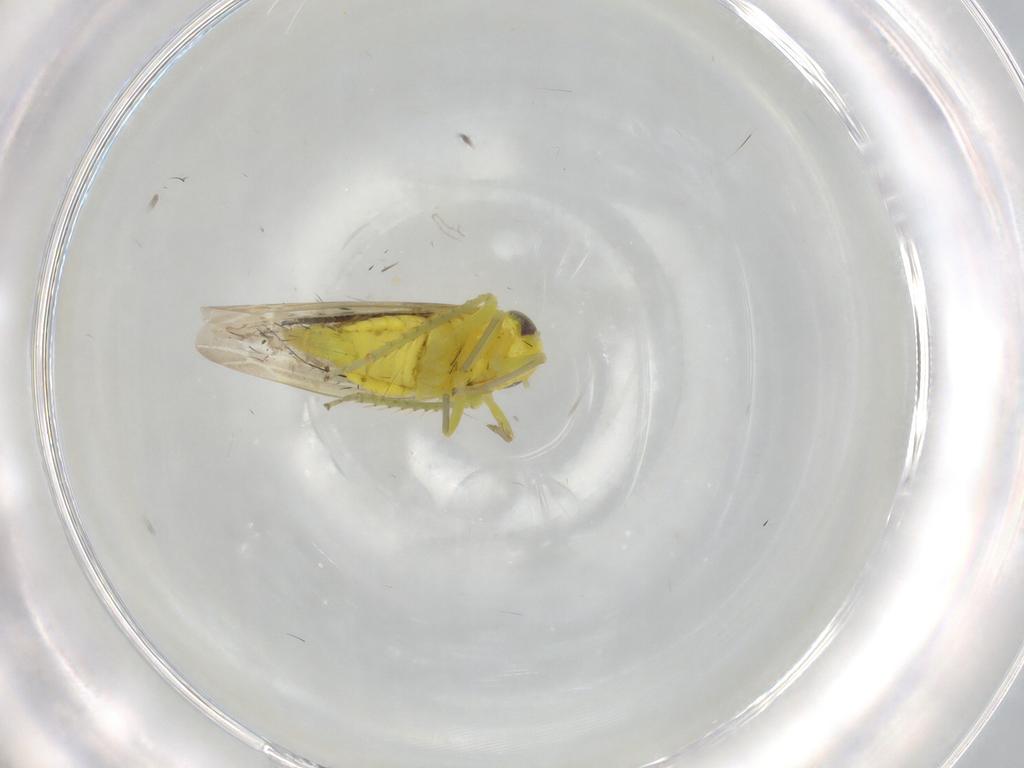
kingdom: Animalia
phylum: Arthropoda
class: Insecta
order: Hemiptera
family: Cicadellidae
